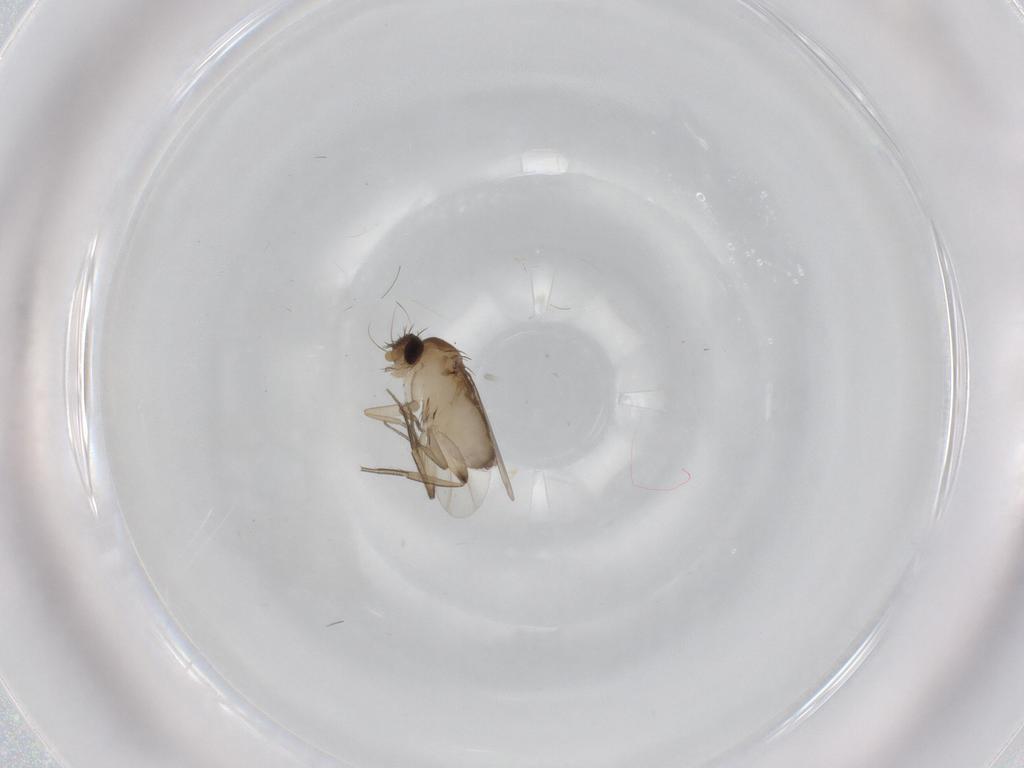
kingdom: Animalia
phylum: Arthropoda
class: Insecta
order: Diptera
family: Phoridae
